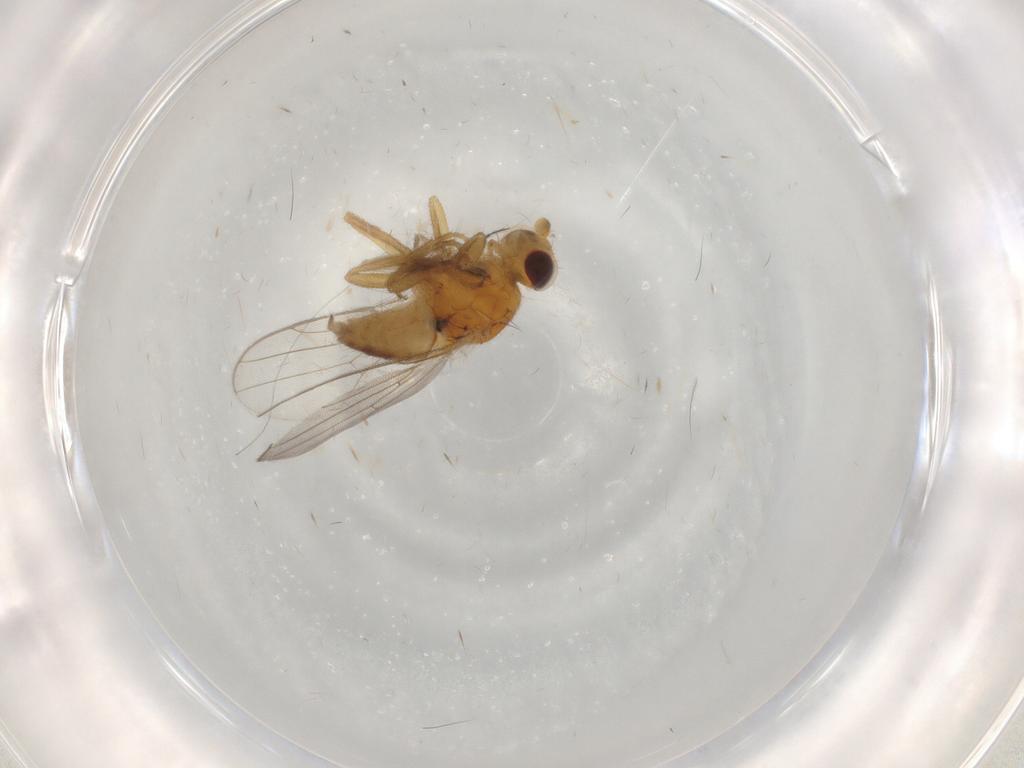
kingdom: Animalia
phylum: Arthropoda
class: Insecta
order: Diptera
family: Chloropidae
